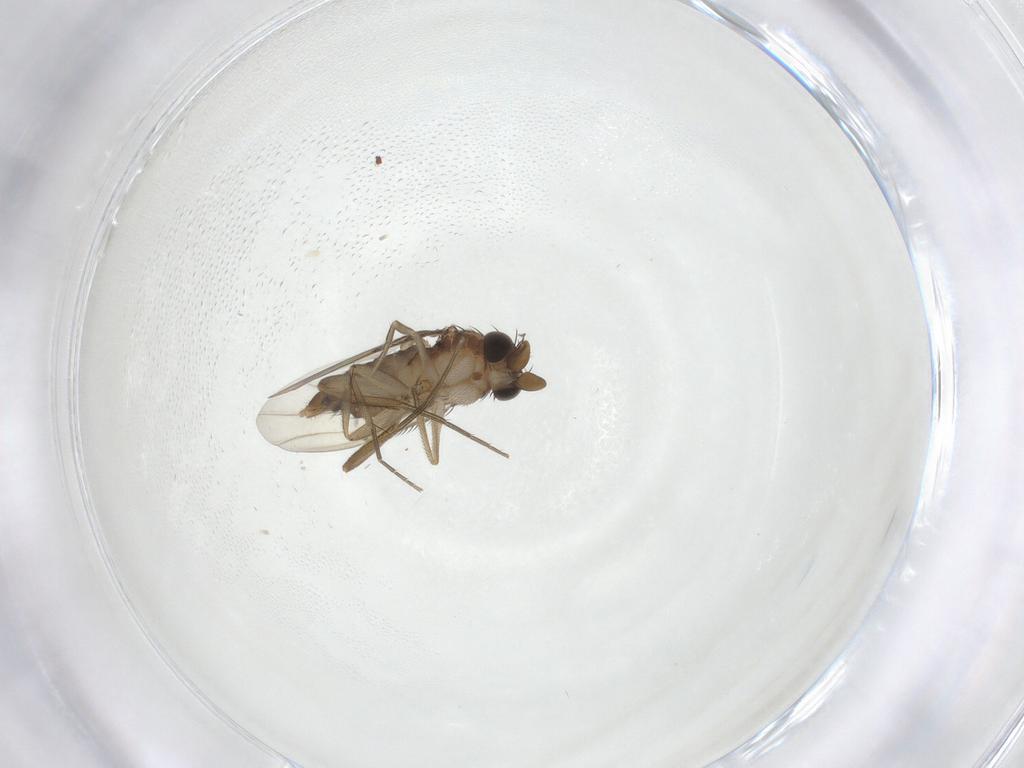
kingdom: Animalia
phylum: Arthropoda
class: Insecta
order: Diptera
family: Phoridae
